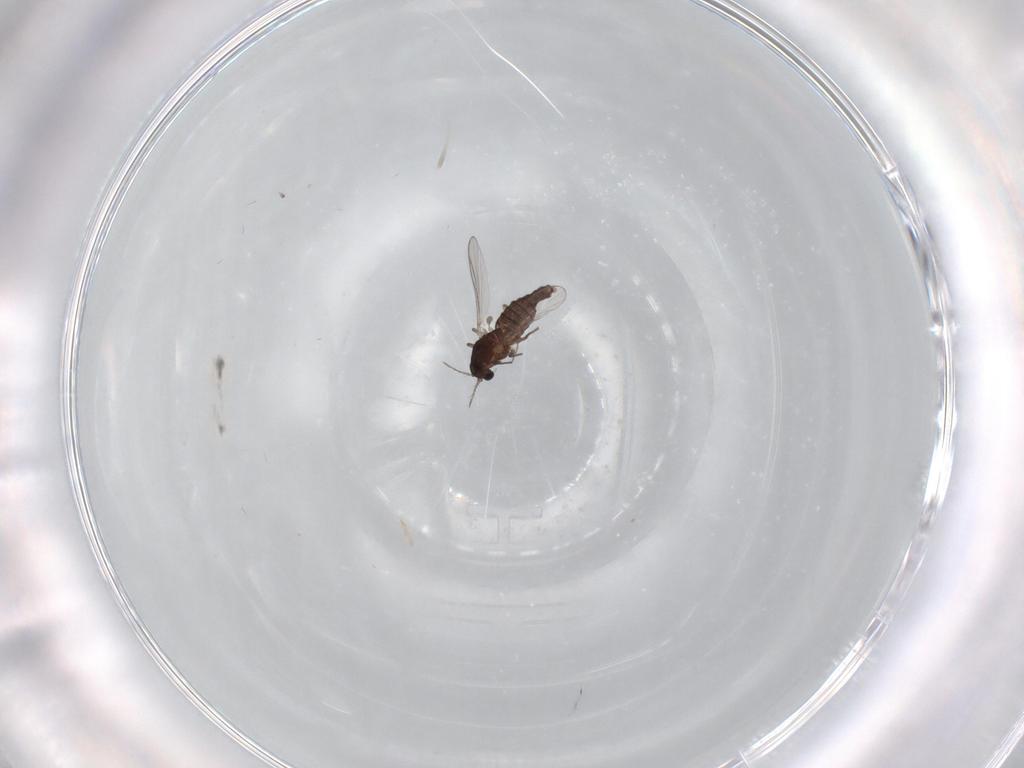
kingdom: Animalia
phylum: Arthropoda
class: Insecta
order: Diptera
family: Chironomidae
